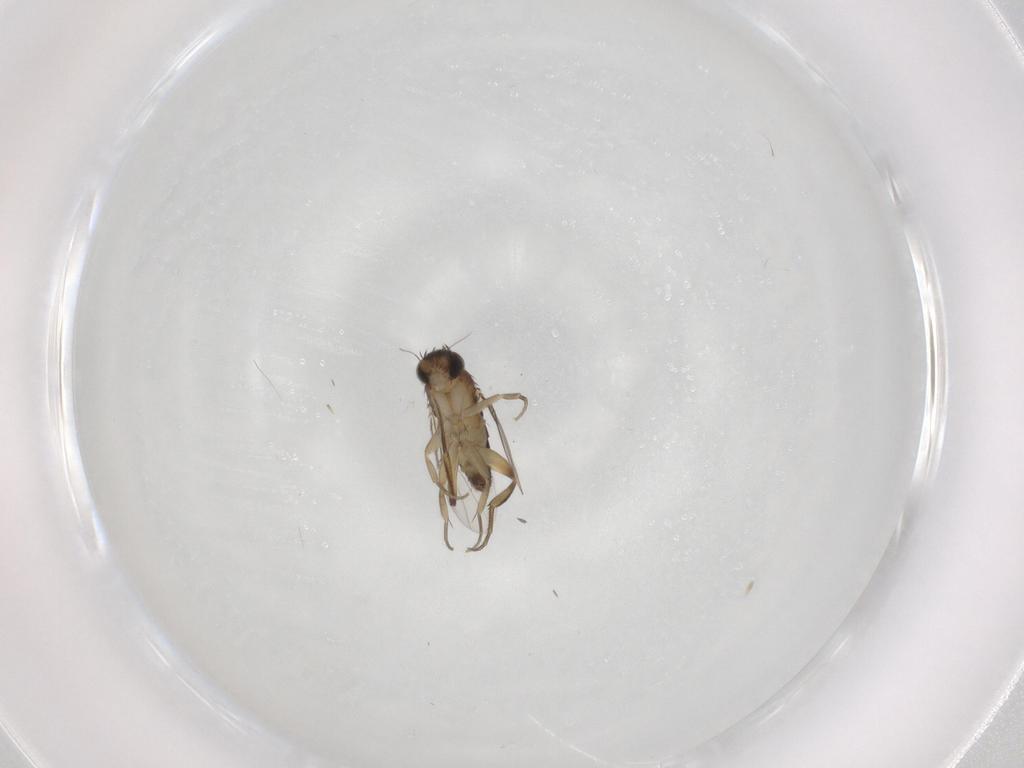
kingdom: Animalia
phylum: Arthropoda
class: Insecta
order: Diptera
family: Phoridae
